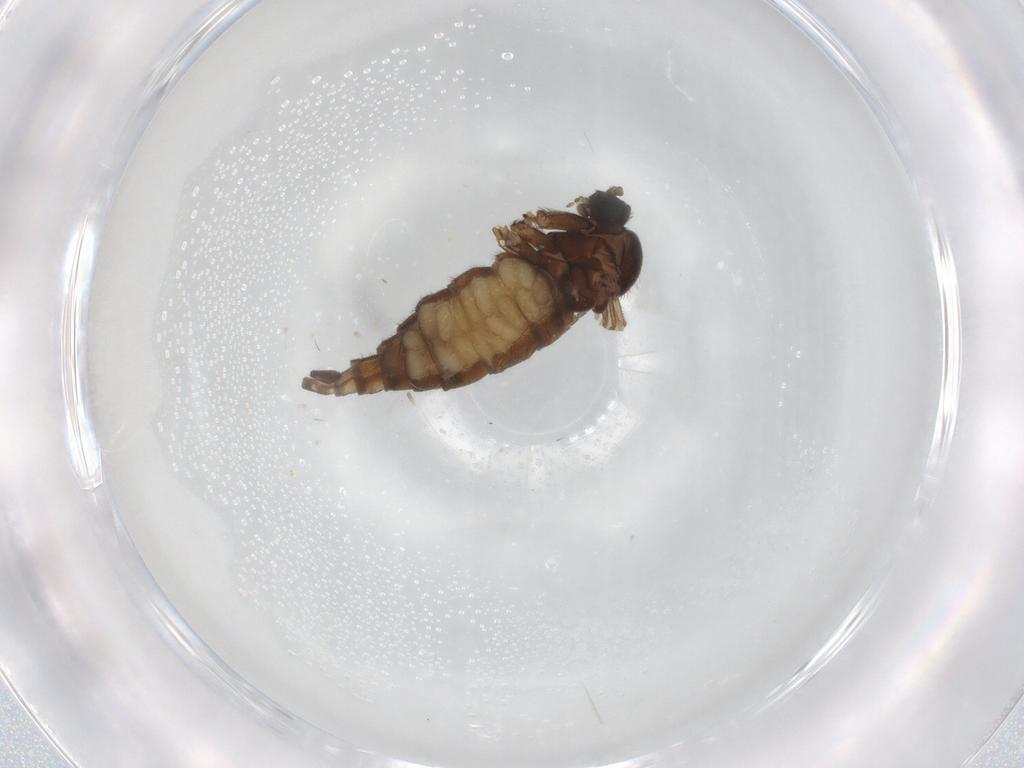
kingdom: Animalia
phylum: Arthropoda
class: Insecta
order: Diptera
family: Sciaridae
